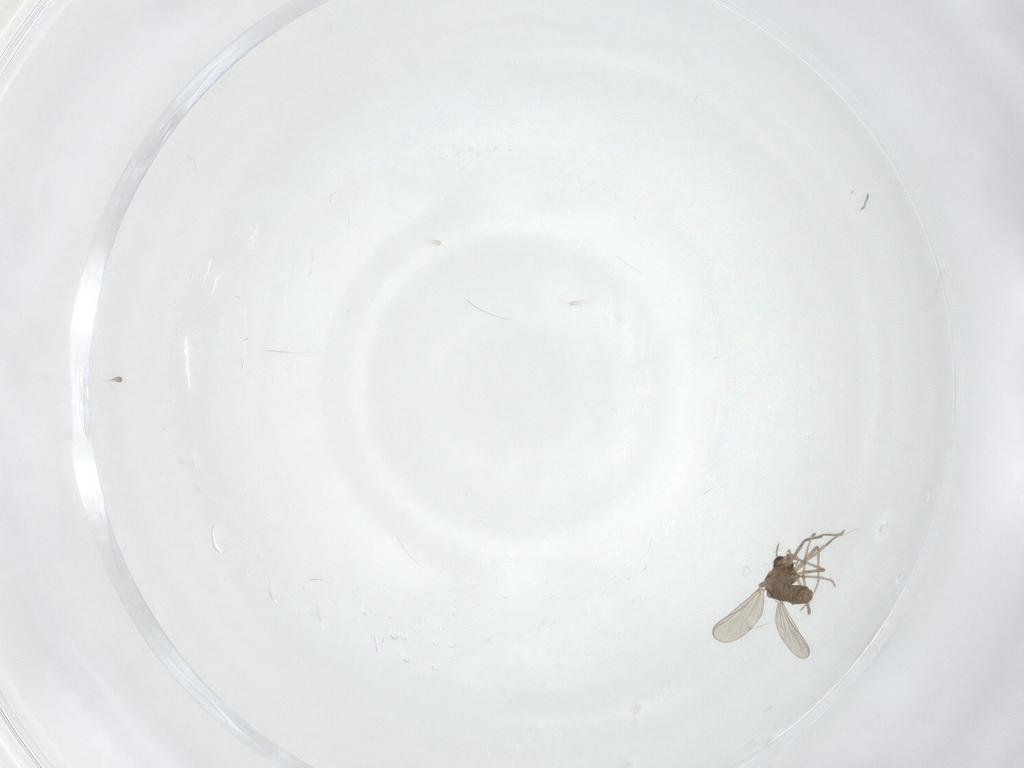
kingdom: Animalia
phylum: Arthropoda
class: Insecta
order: Diptera
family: Chironomidae
